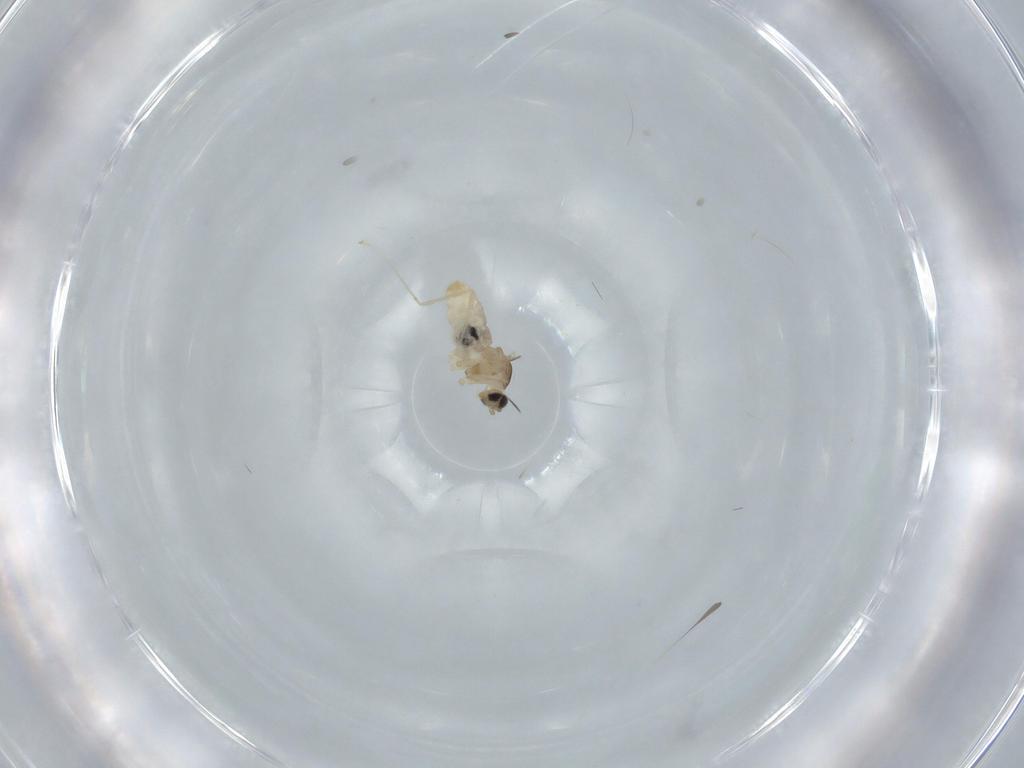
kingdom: Animalia
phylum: Arthropoda
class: Insecta
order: Diptera
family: Cecidomyiidae
